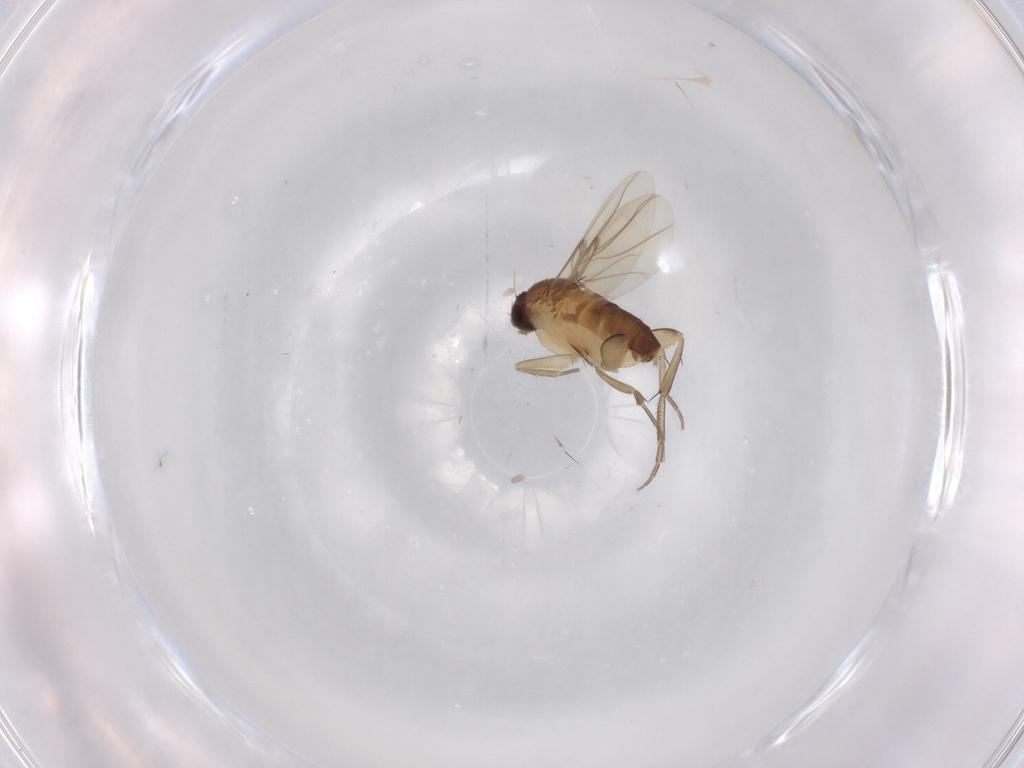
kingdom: Animalia
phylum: Arthropoda
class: Insecta
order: Diptera
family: Phoridae
